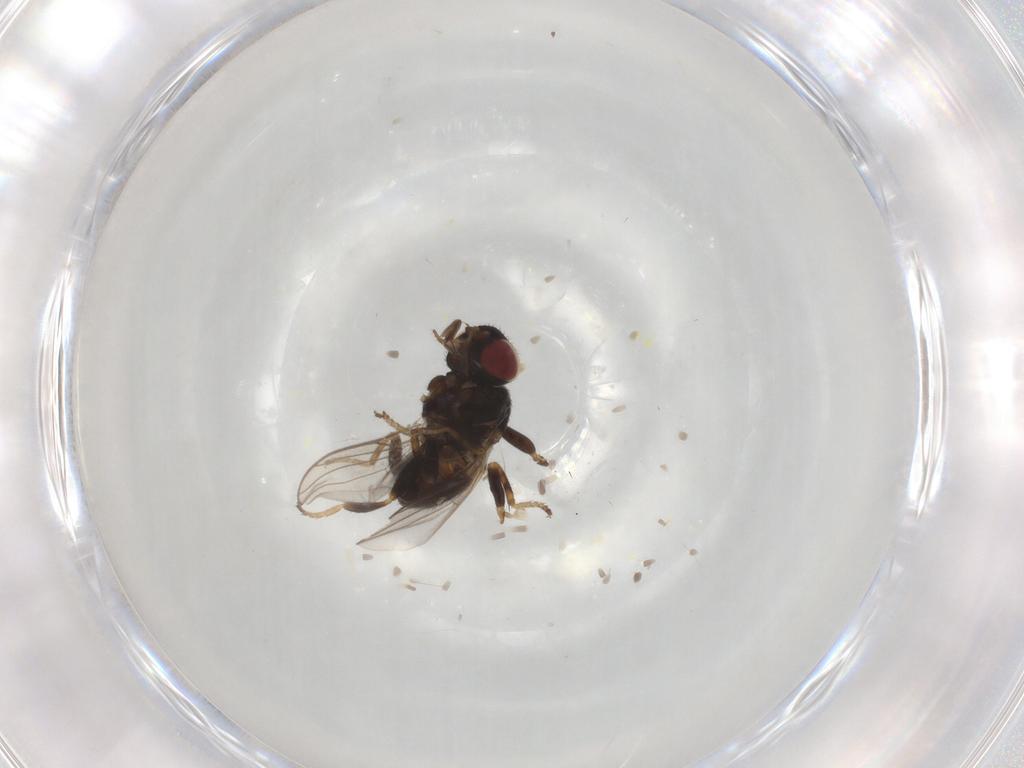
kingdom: Animalia
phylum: Arthropoda
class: Insecta
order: Diptera
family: Chloropidae
